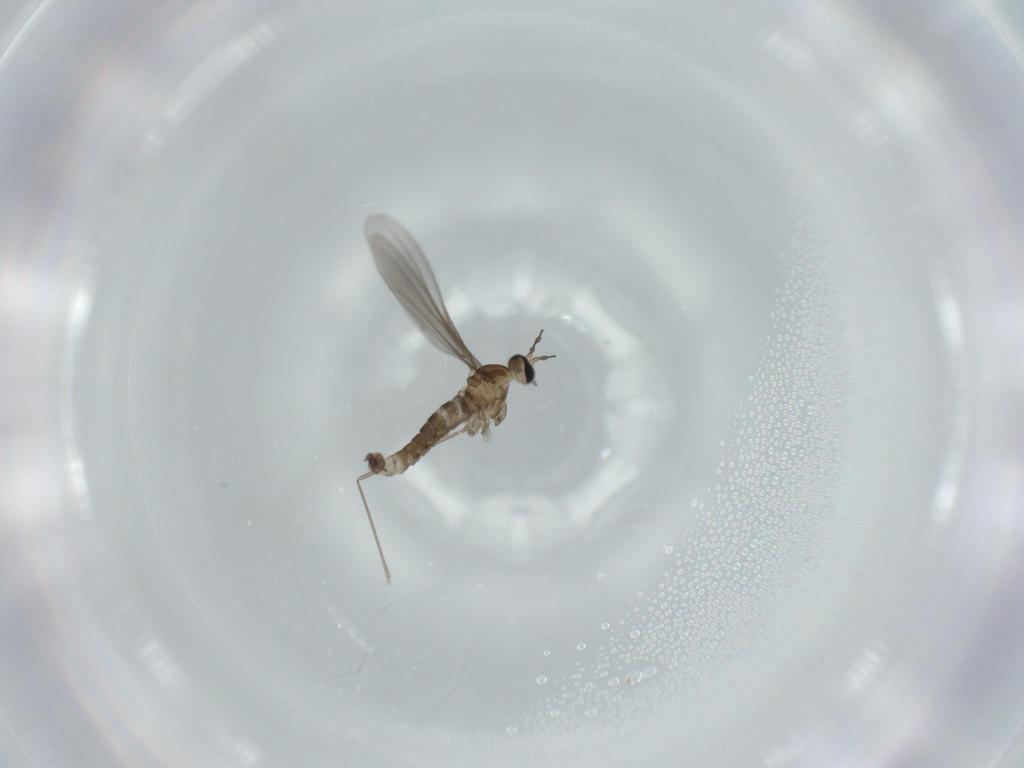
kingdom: Animalia
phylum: Arthropoda
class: Insecta
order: Diptera
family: Cecidomyiidae
